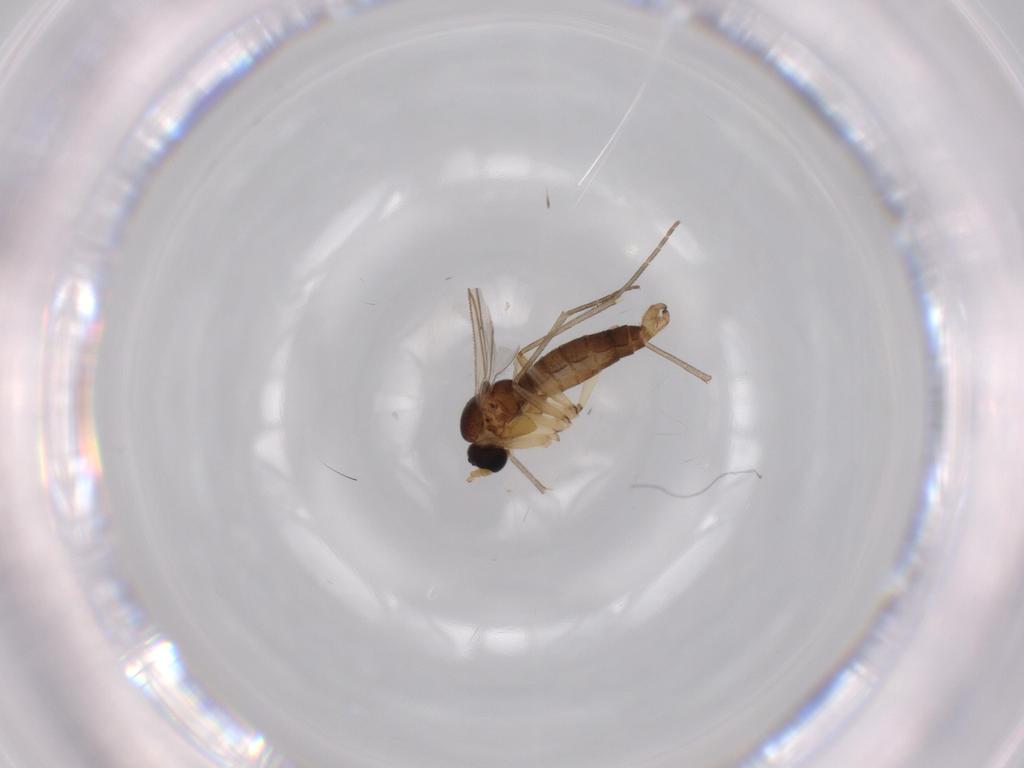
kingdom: Animalia
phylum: Arthropoda
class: Insecta
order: Diptera
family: Sciaridae
